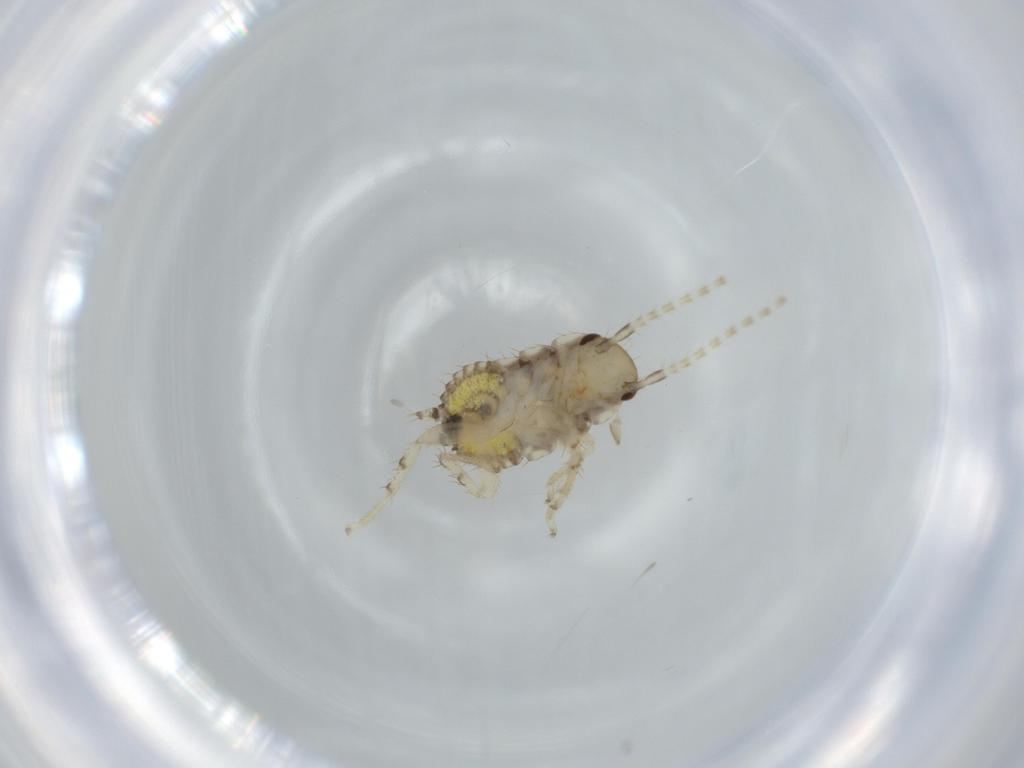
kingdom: Animalia
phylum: Arthropoda
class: Insecta
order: Blattodea
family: Ectobiidae
